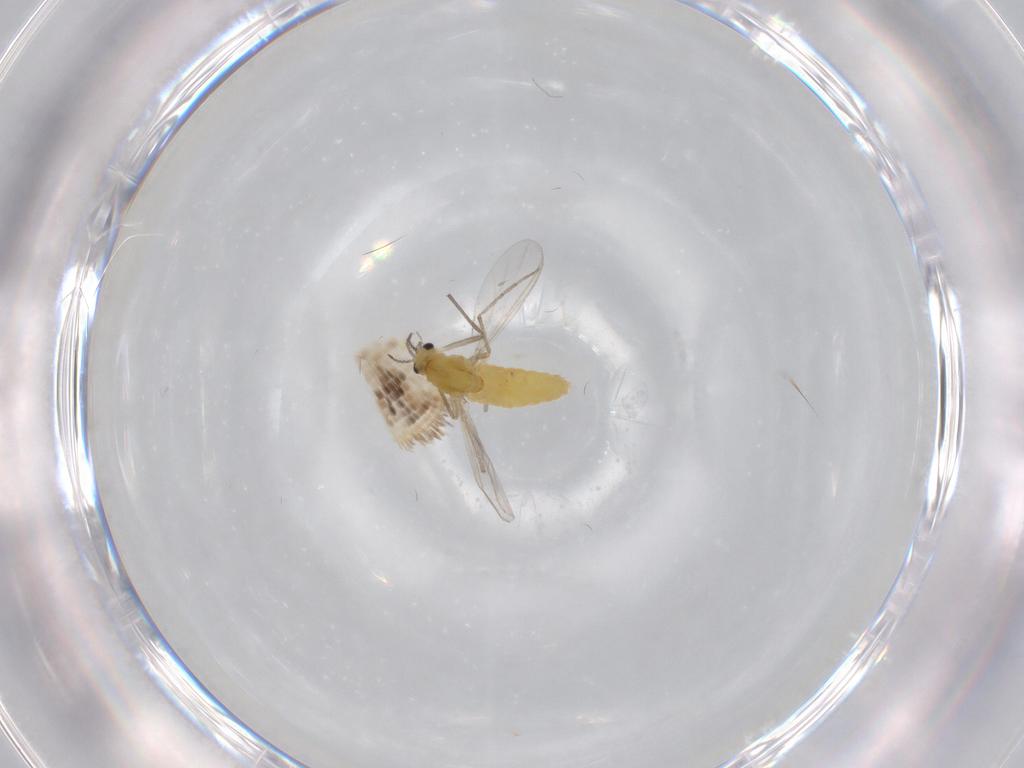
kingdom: Animalia
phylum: Arthropoda
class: Insecta
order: Diptera
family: Chironomidae
